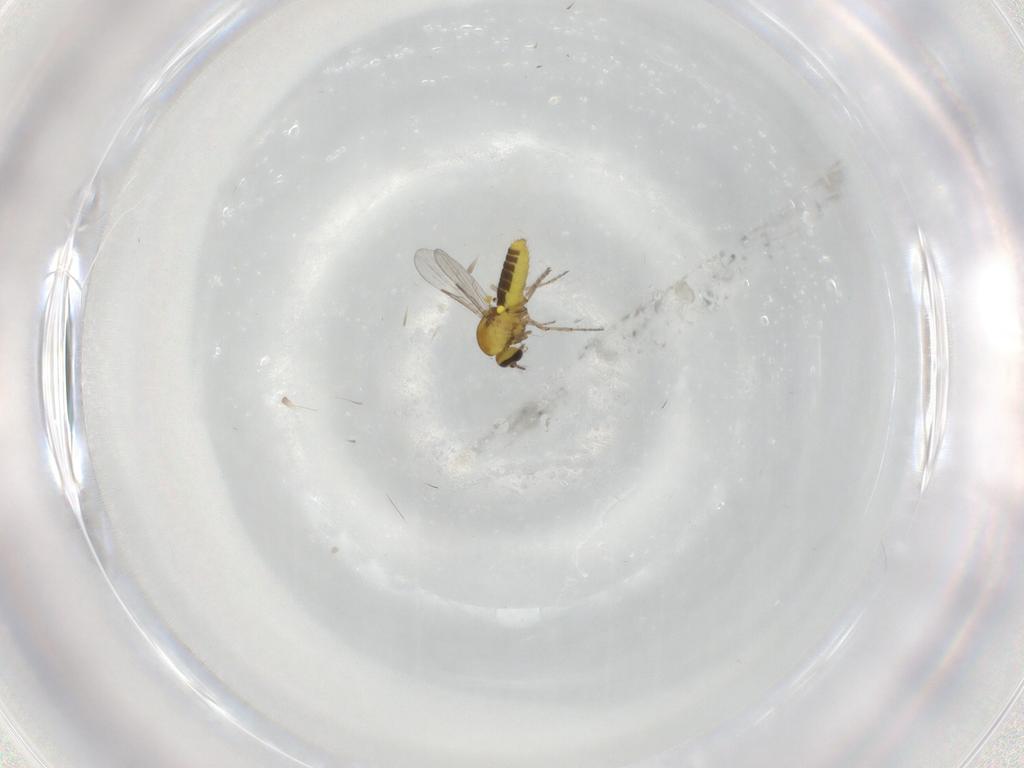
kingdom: Animalia
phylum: Arthropoda
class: Insecta
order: Diptera
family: Ceratopogonidae
